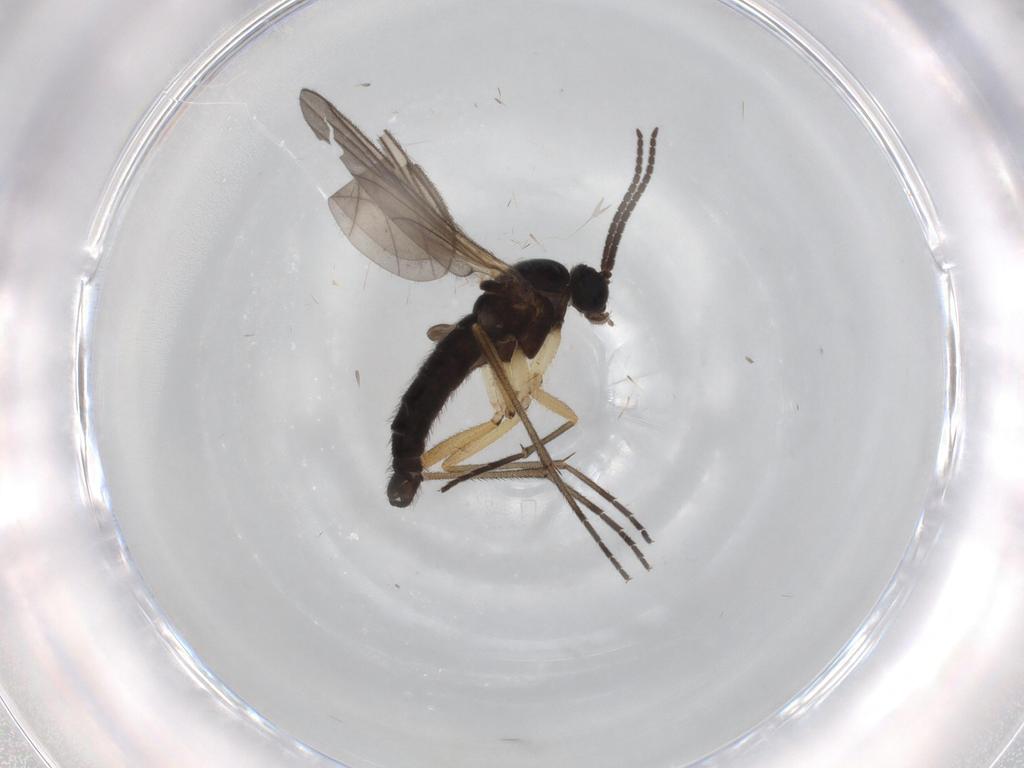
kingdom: Animalia
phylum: Arthropoda
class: Insecta
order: Diptera
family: Sciaridae
